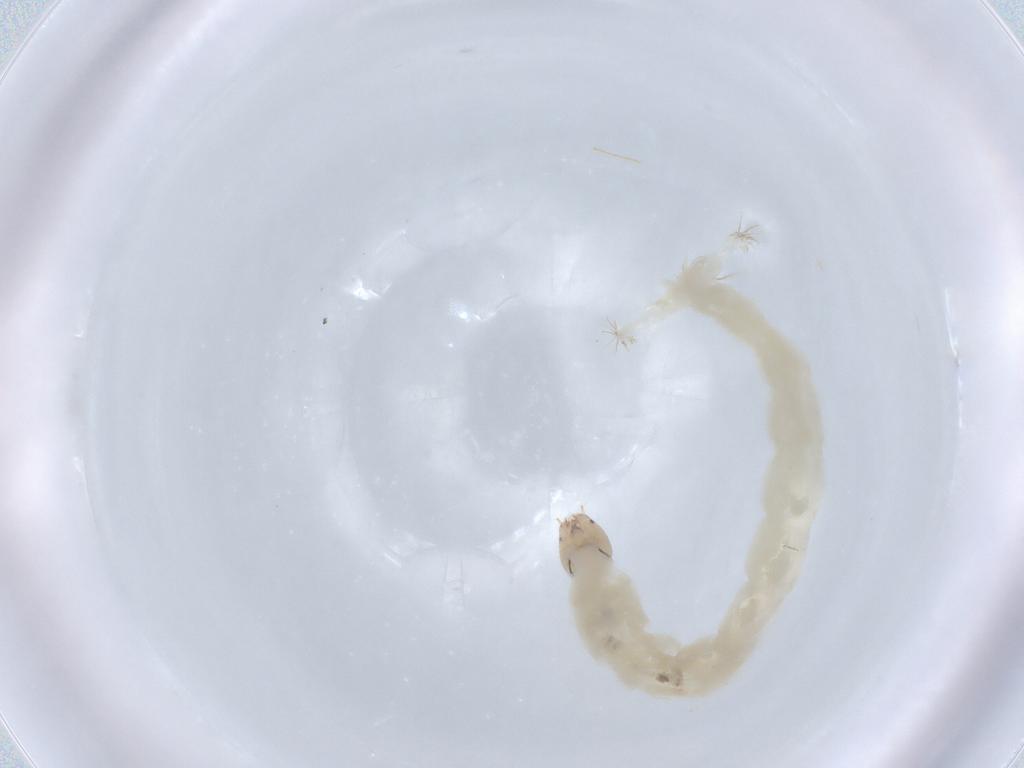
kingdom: Animalia
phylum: Arthropoda
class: Insecta
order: Diptera
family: Chironomidae
